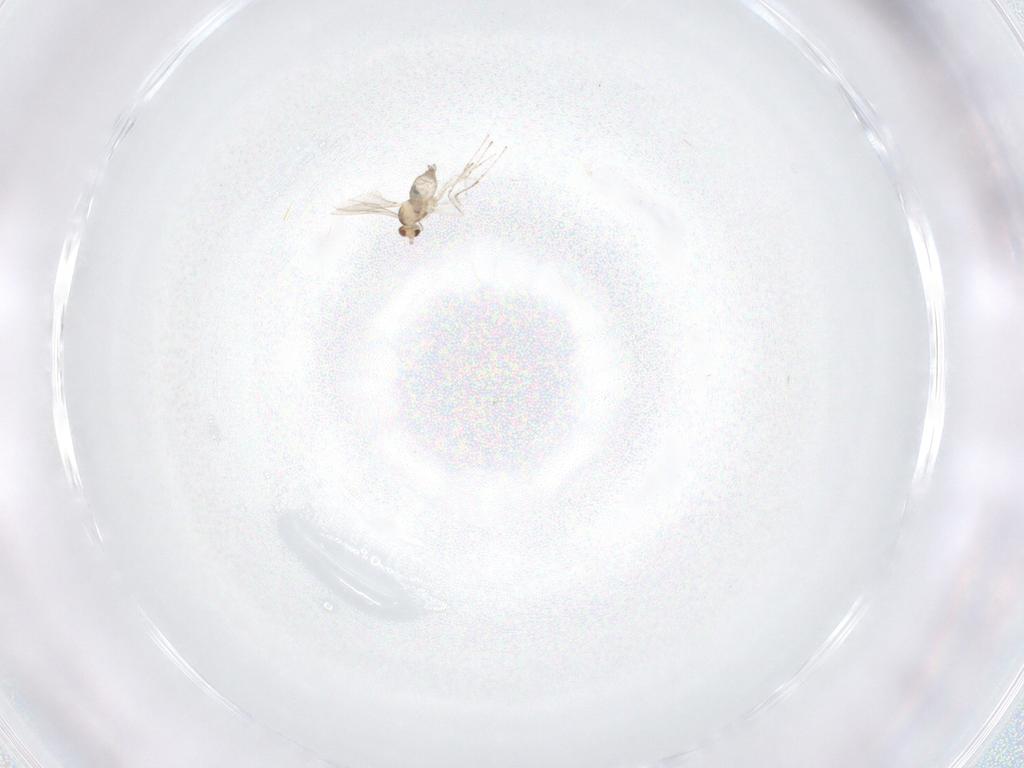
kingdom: Animalia
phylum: Arthropoda
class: Insecta
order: Diptera
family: Cecidomyiidae
